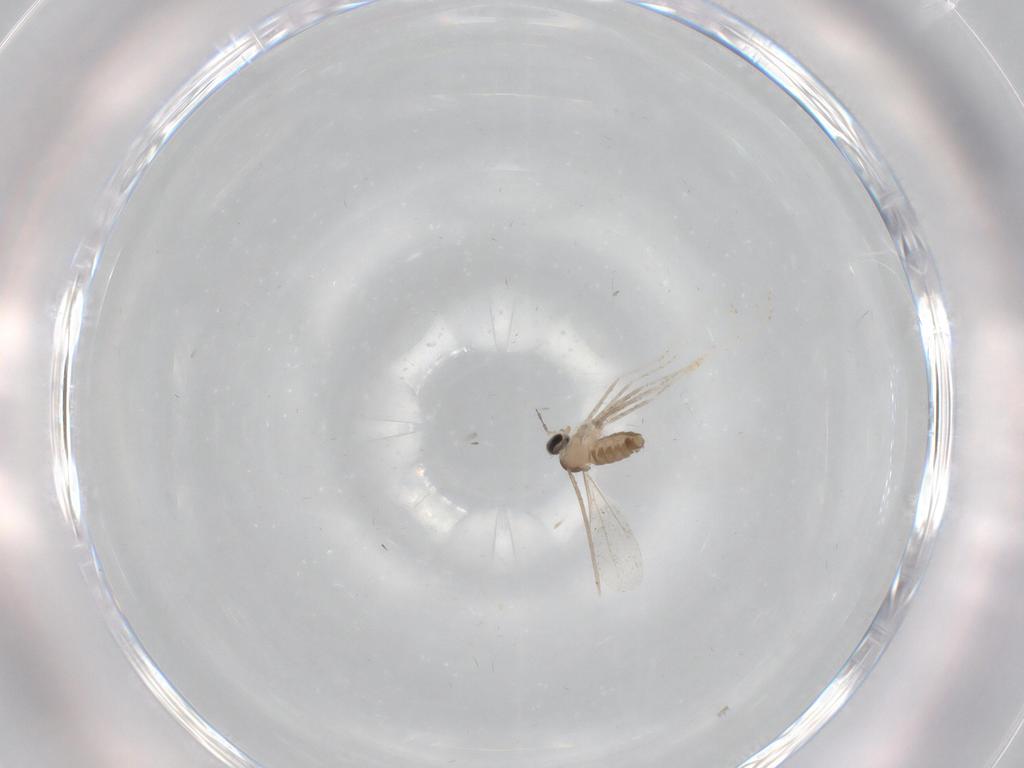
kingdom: Animalia
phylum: Arthropoda
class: Insecta
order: Diptera
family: Cecidomyiidae
